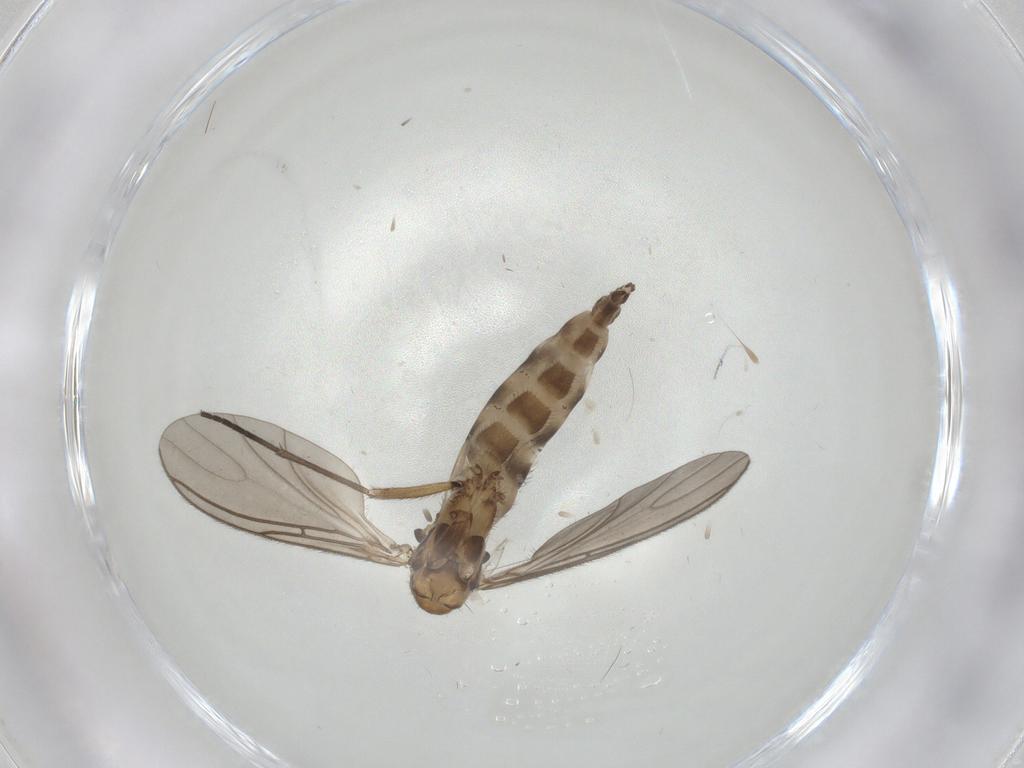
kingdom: Animalia
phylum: Arthropoda
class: Insecta
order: Diptera
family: Sciaridae
